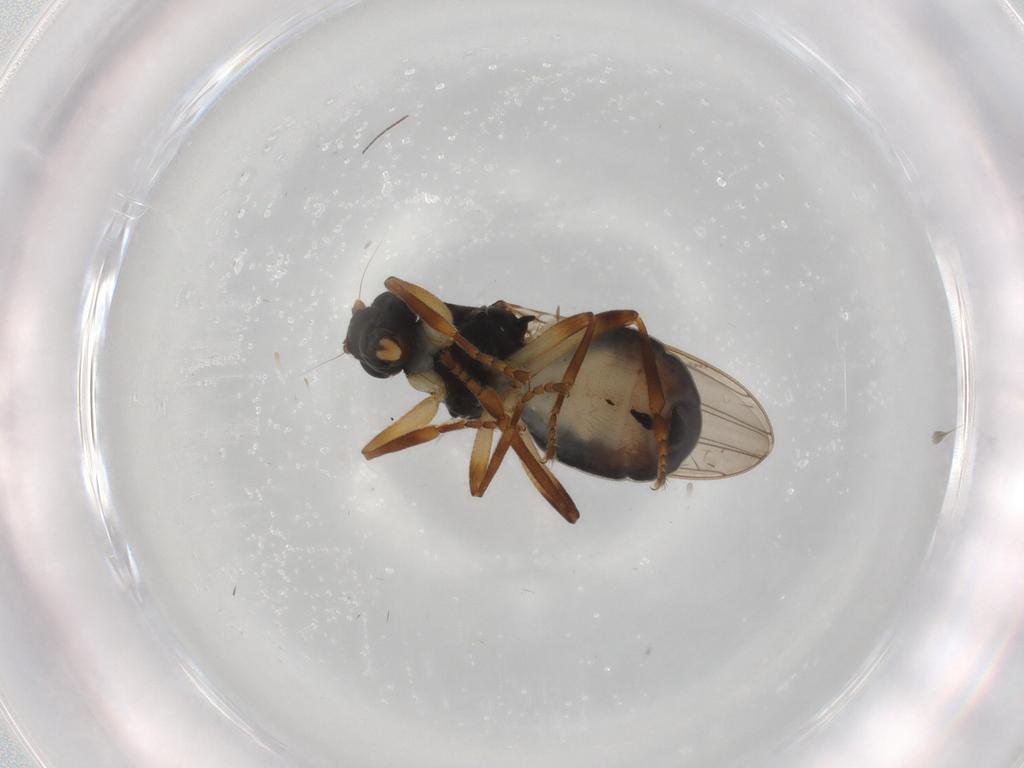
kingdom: Animalia
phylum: Arthropoda
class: Insecta
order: Diptera
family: Sphaeroceridae
